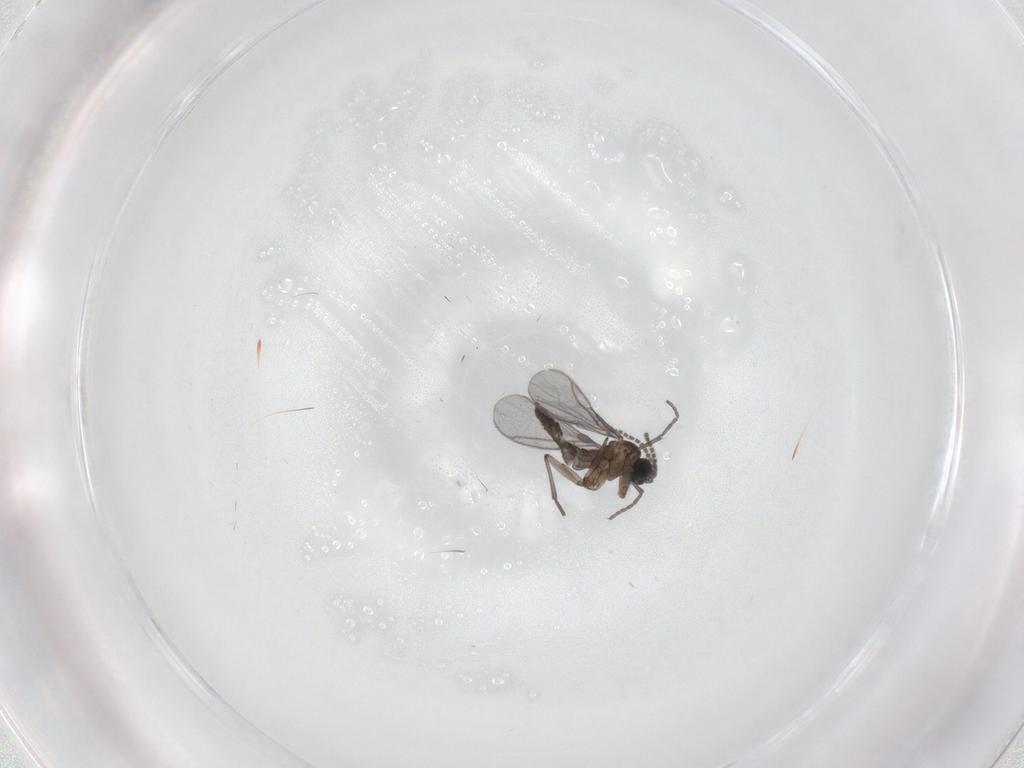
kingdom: Animalia
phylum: Arthropoda
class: Insecta
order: Diptera
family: Sciaridae
